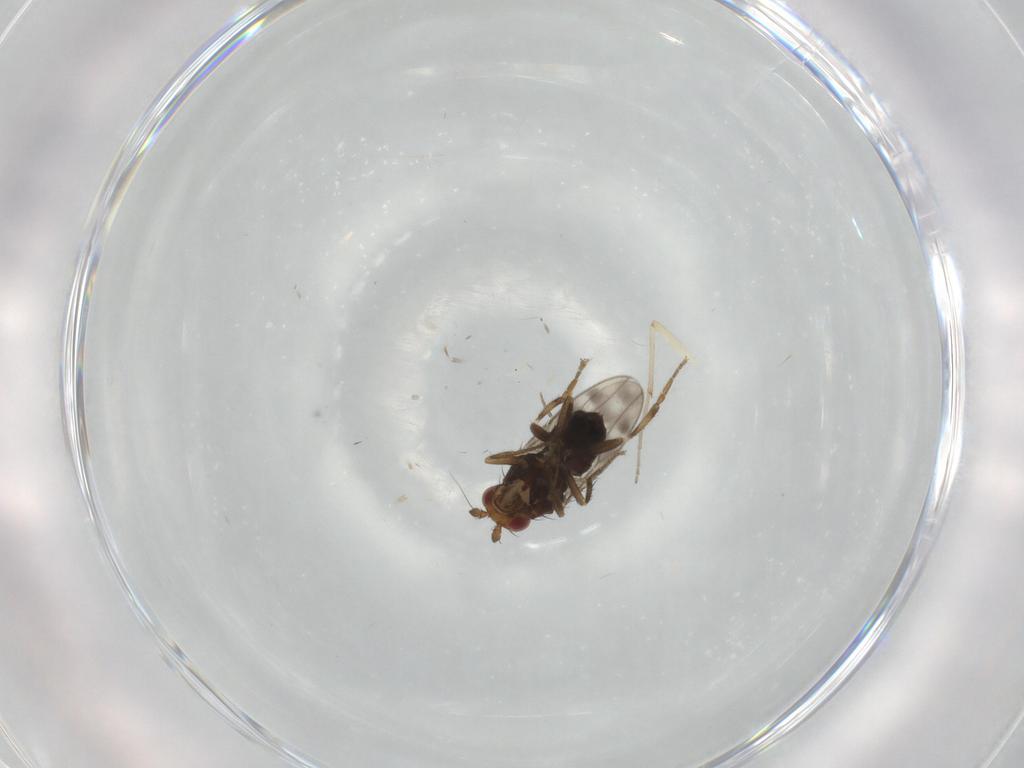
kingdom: Animalia
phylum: Arthropoda
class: Insecta
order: Diptera
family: Sphaeroceridae
